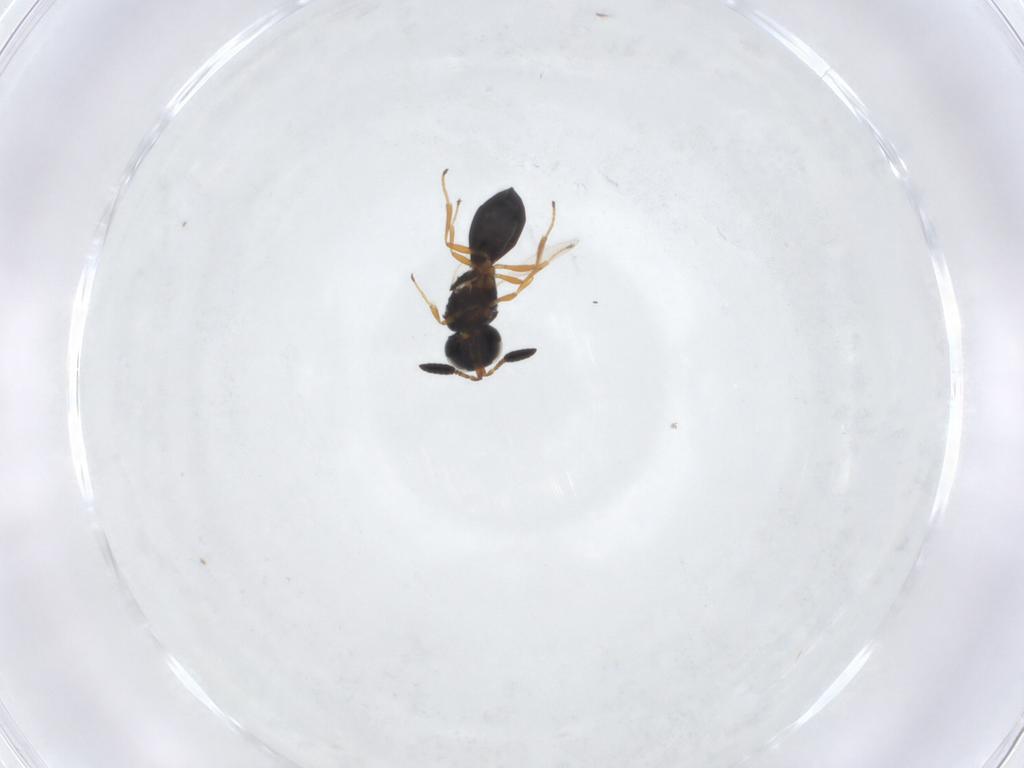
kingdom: Animalia
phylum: Arthropoda
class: Insecta
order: Hymenoptera
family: Scelionidae
